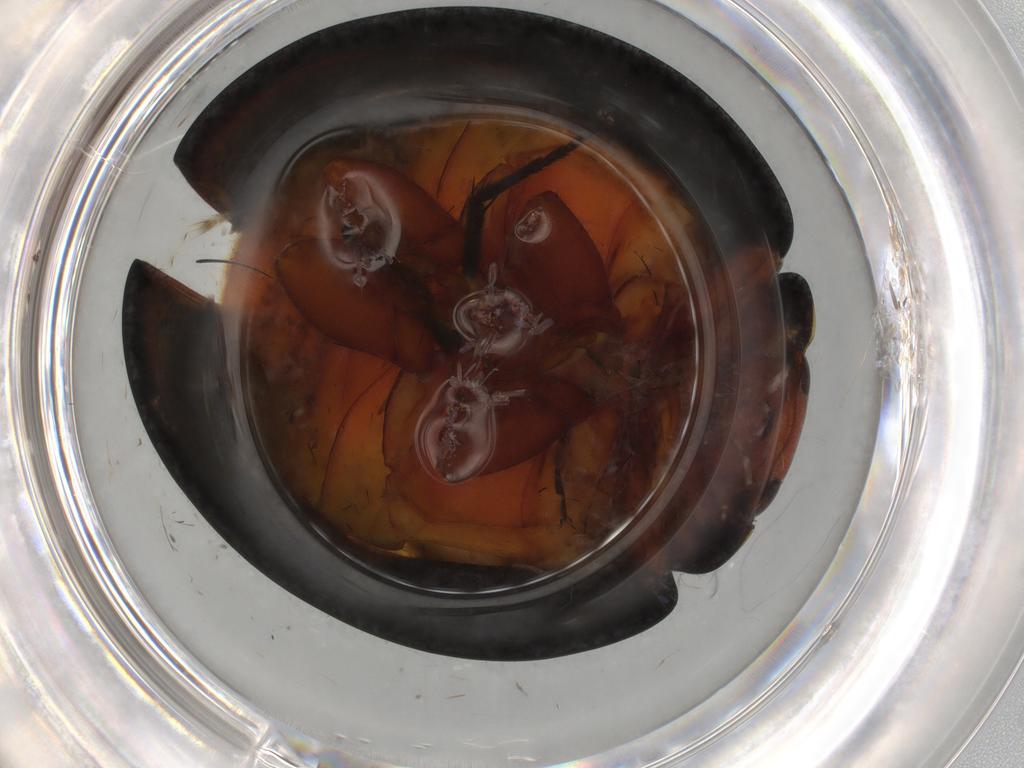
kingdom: Animalia
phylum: Arthropoda
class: Insecta
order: Coleoptera
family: Coccinellidae
